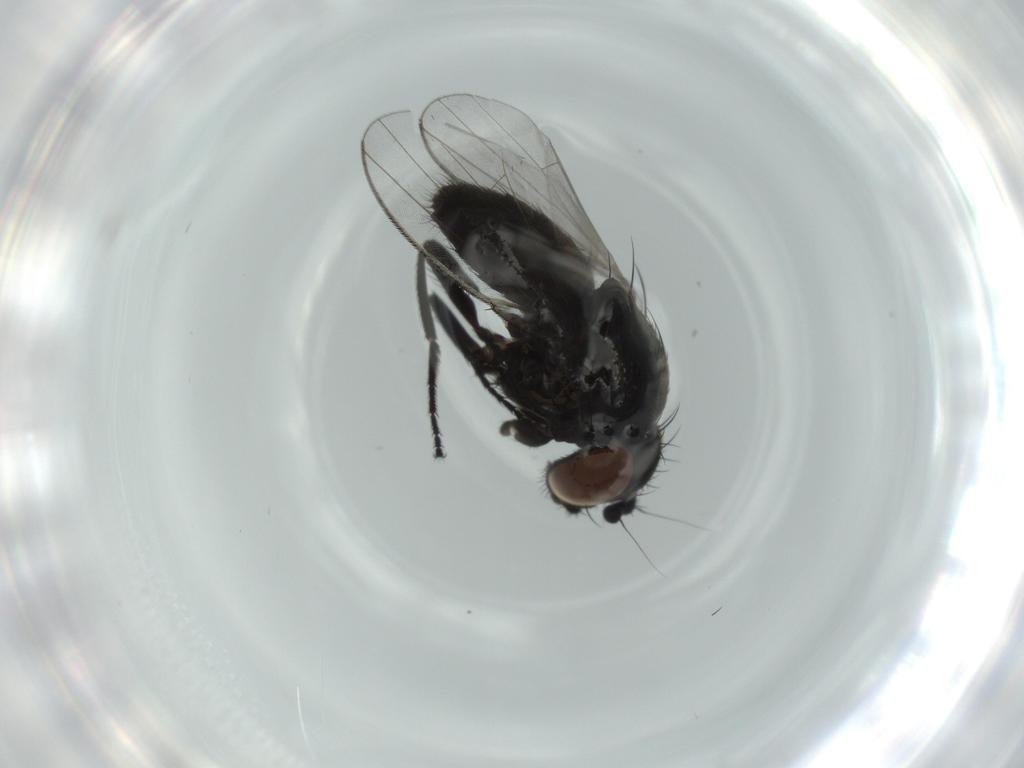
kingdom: Animalia
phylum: Arthropoda
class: Insecta
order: Diptera
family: Milichiidae
